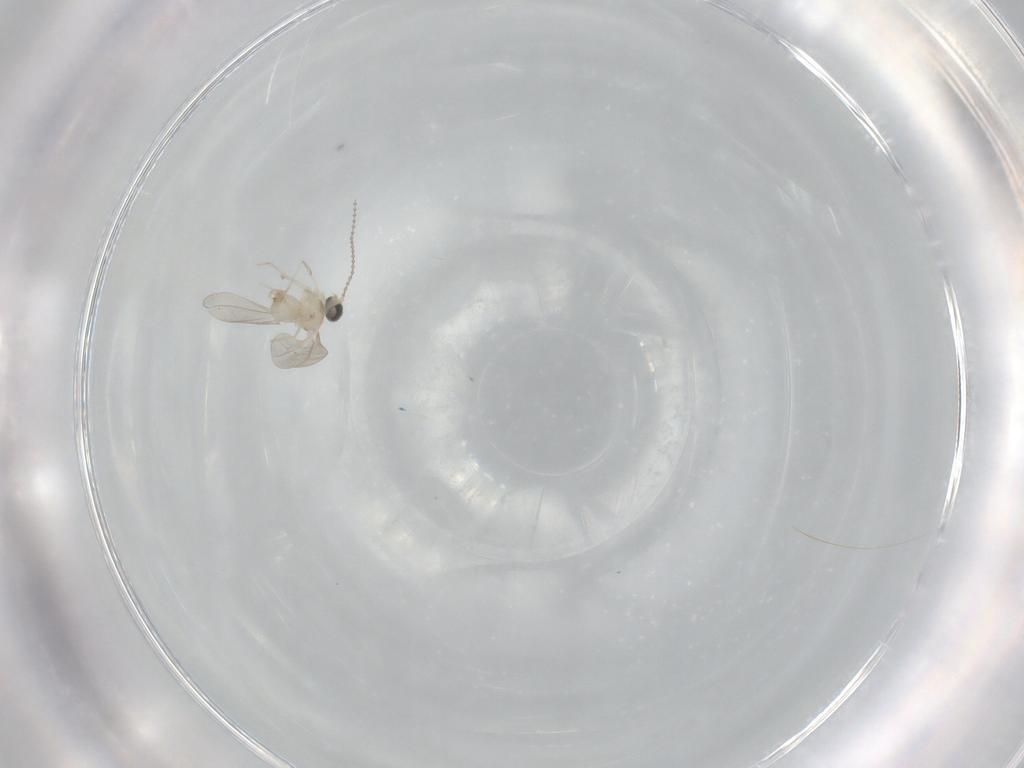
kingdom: Animalia
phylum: Arthropoda
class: Insecta
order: Diptera
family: Cecidomyiidae
